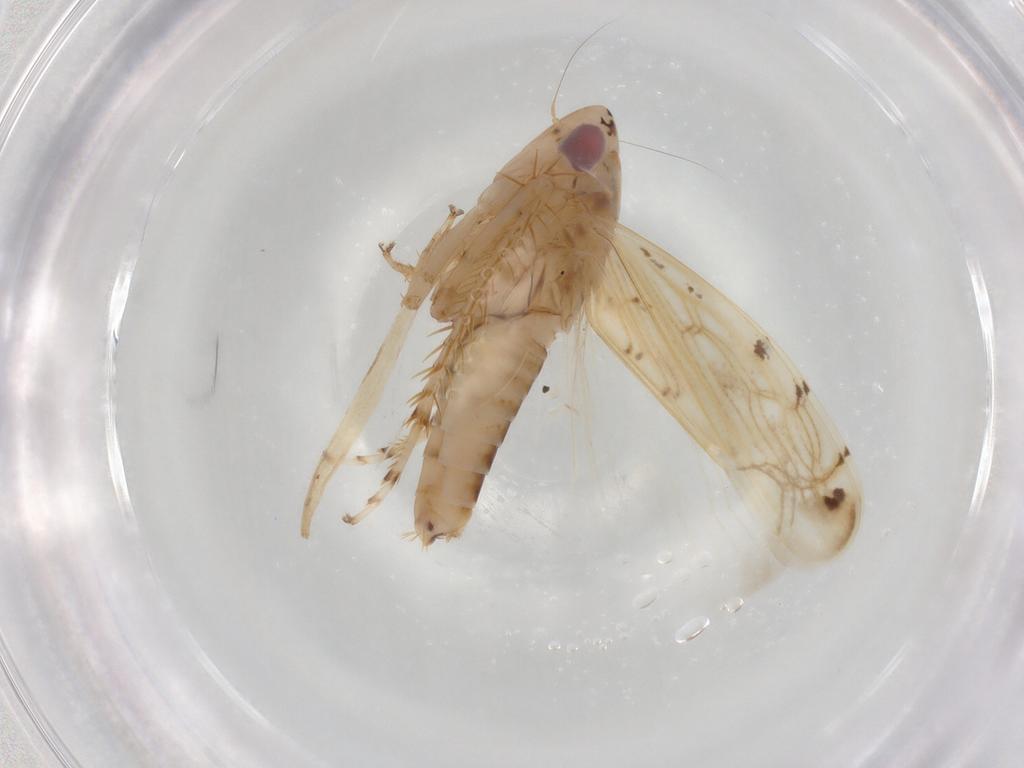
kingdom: Animalia
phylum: Arthropoda
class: Insecta
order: Hemiptera
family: Cicadellidae
